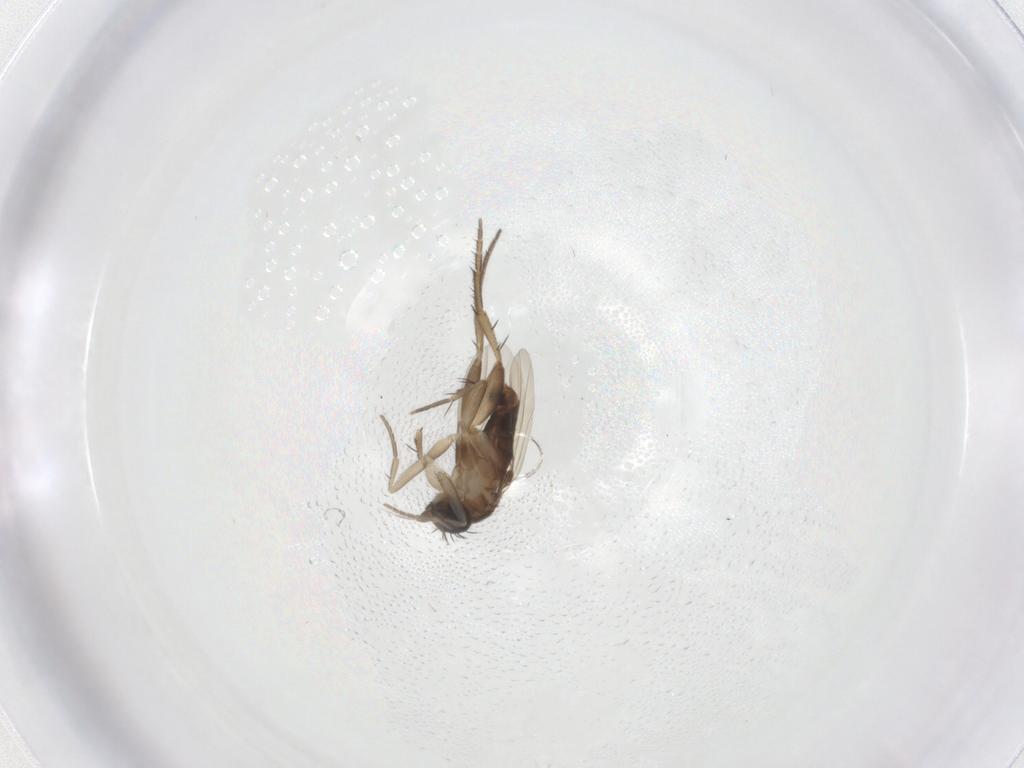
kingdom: Animalia
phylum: Arthropoda
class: Insecta
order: Diptera
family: Phoridae
